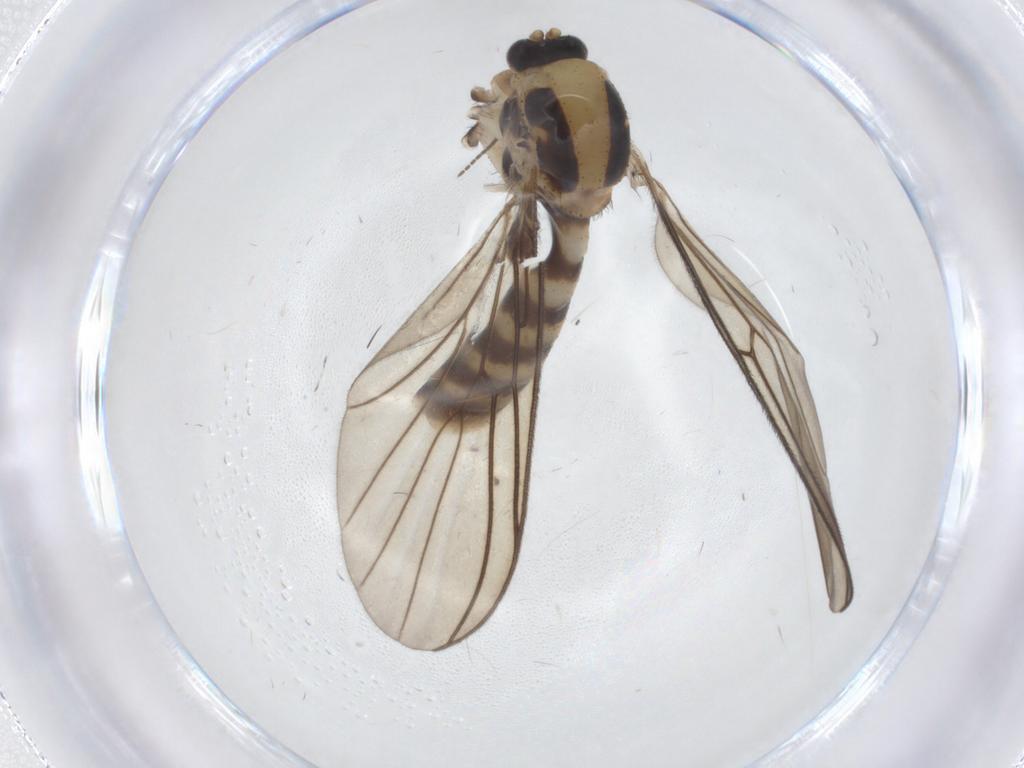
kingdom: Animalia
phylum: Arthropoda
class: Insecta
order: Diptera
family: Mycetophilidae
